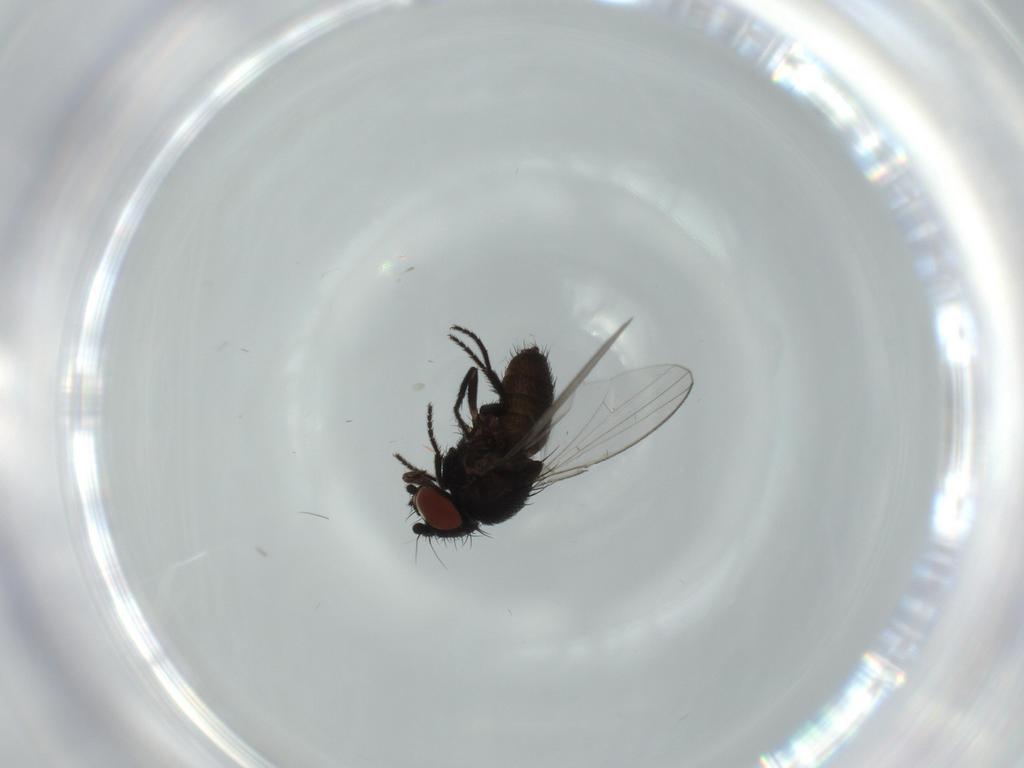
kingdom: Animalia
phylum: Arthropoda
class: Insecta
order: Diptera
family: Milichiidae
